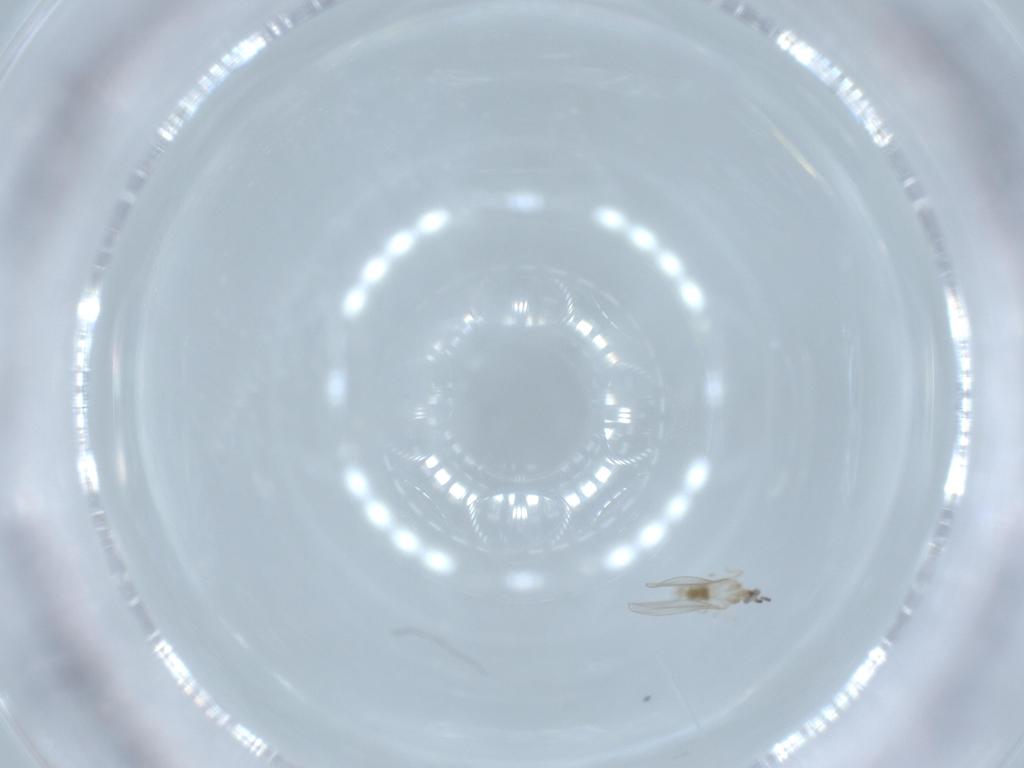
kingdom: Animalia
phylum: Arthropoda
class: Insecta
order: Diptera
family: Cecidomyiidae
